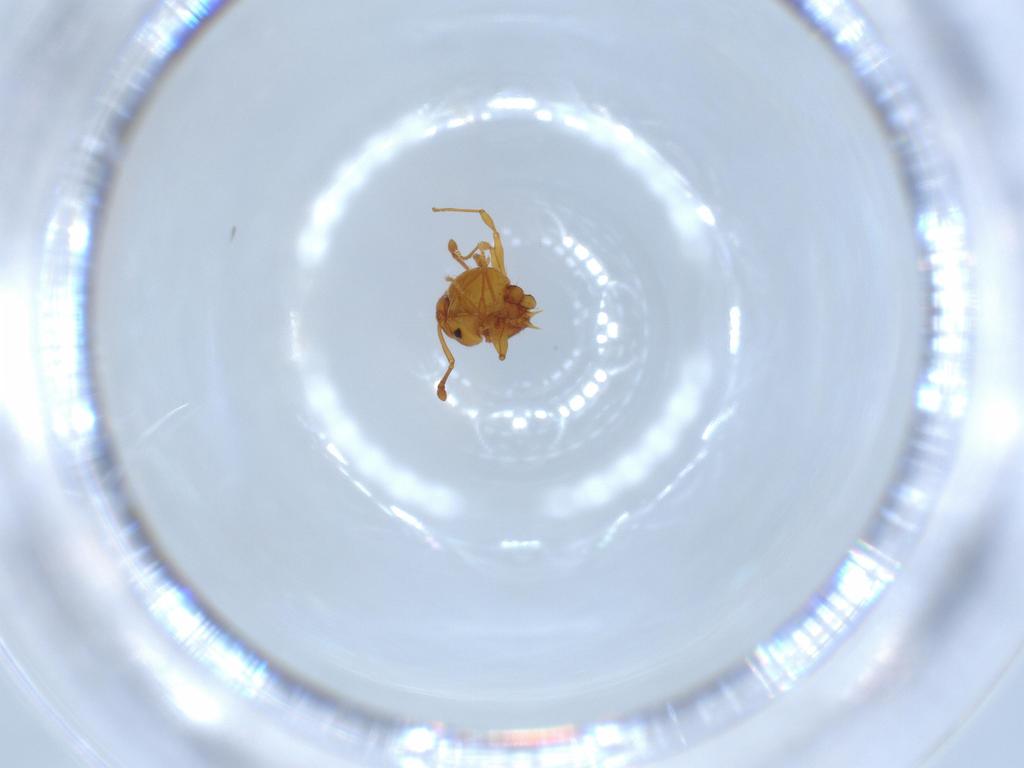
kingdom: Animalia
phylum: Arthropoda
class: Insecta
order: Hymenoptera
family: Formicidae
